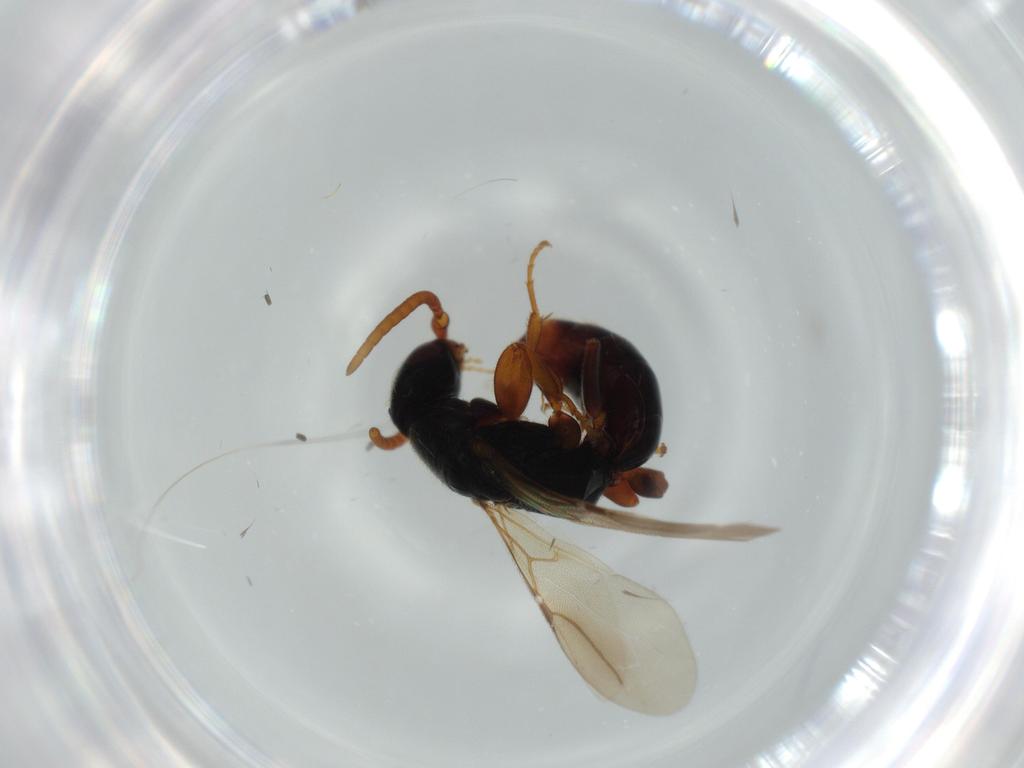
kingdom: Animalia
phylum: Arthropoda
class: Insecta
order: Hymenoptera
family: Bethylidae
